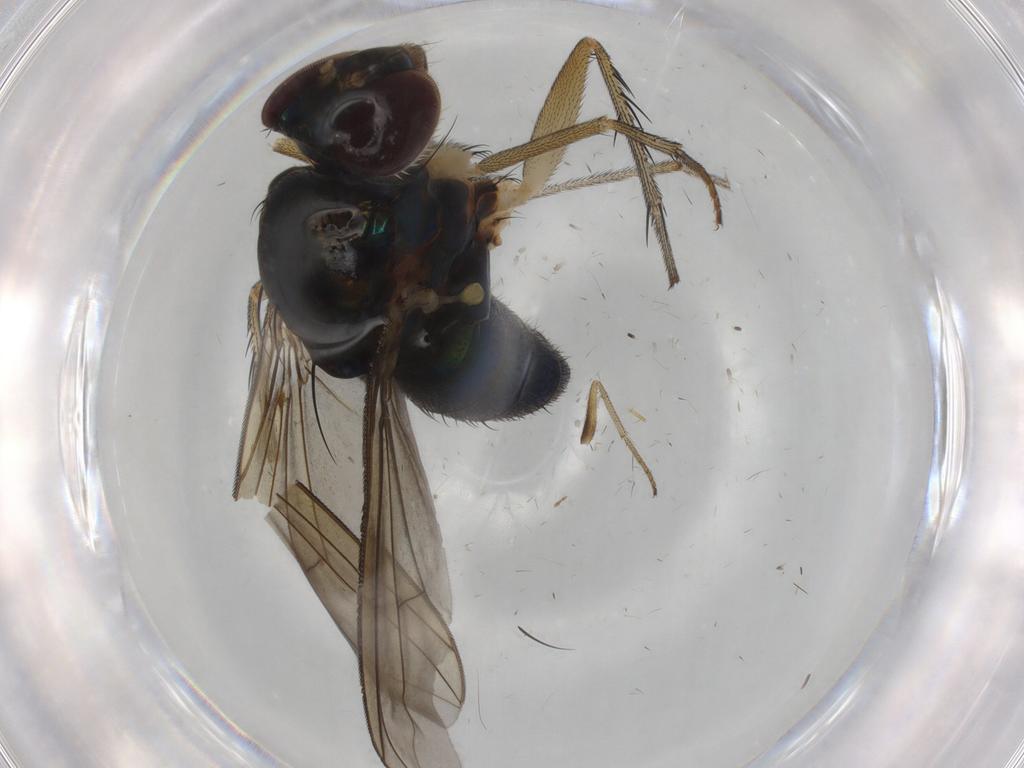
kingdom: Animalia
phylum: Arthropoda
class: Insecta
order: Diptera
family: Dolichopodidae
